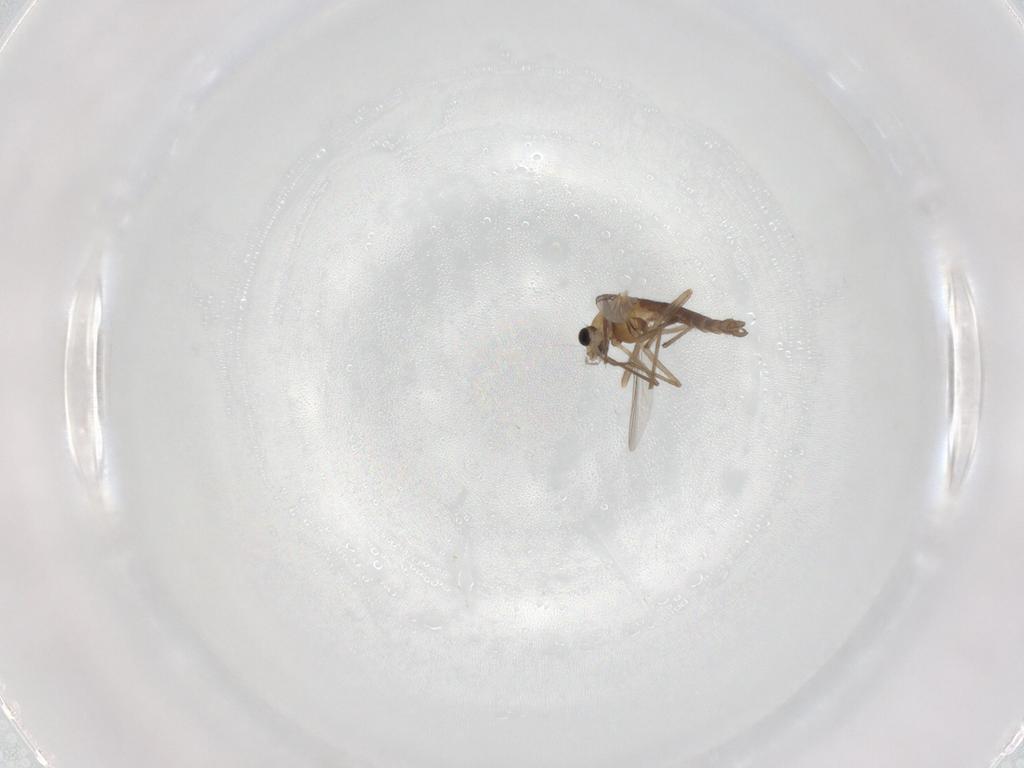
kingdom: Animalia
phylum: Arthropoda
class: Insecta
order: Diptera
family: Chironomidae
